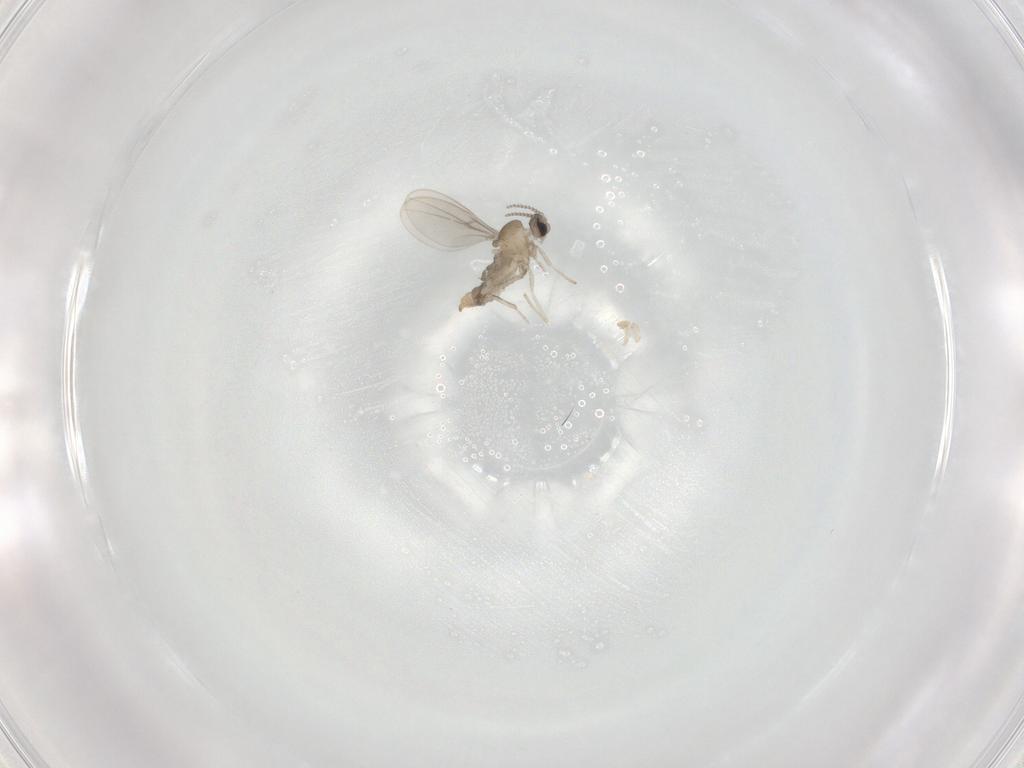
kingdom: Animalia
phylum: Arthropoda
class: Insecta
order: Diptera
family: Cecidomyiidae
